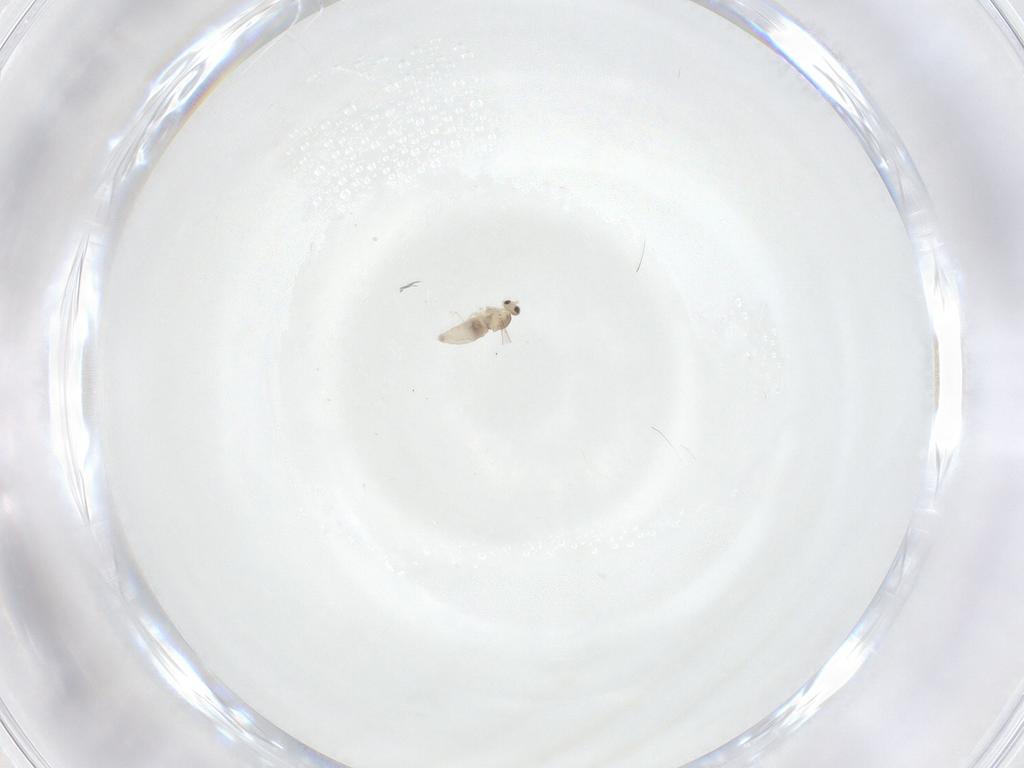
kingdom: Animalia
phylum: Arthropoda
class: Insecta
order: Diptera
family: Cecidomyiidae
